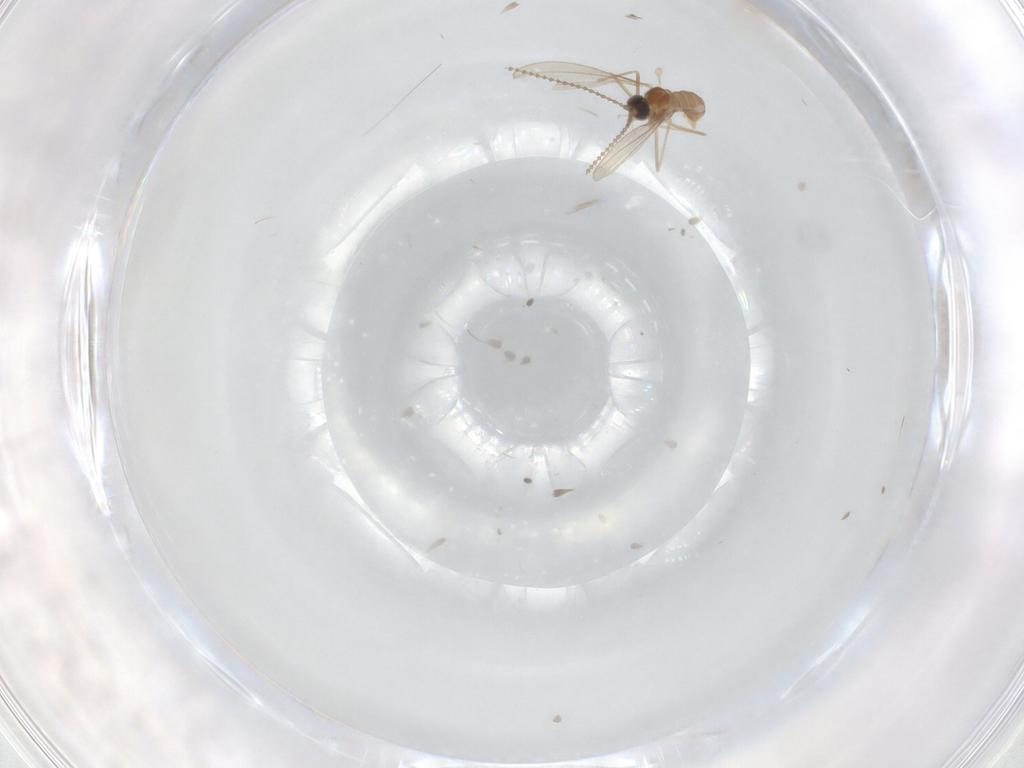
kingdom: Animalia
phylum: Arthropoda
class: Insecta
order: Diptera
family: Cecidomyiidae
